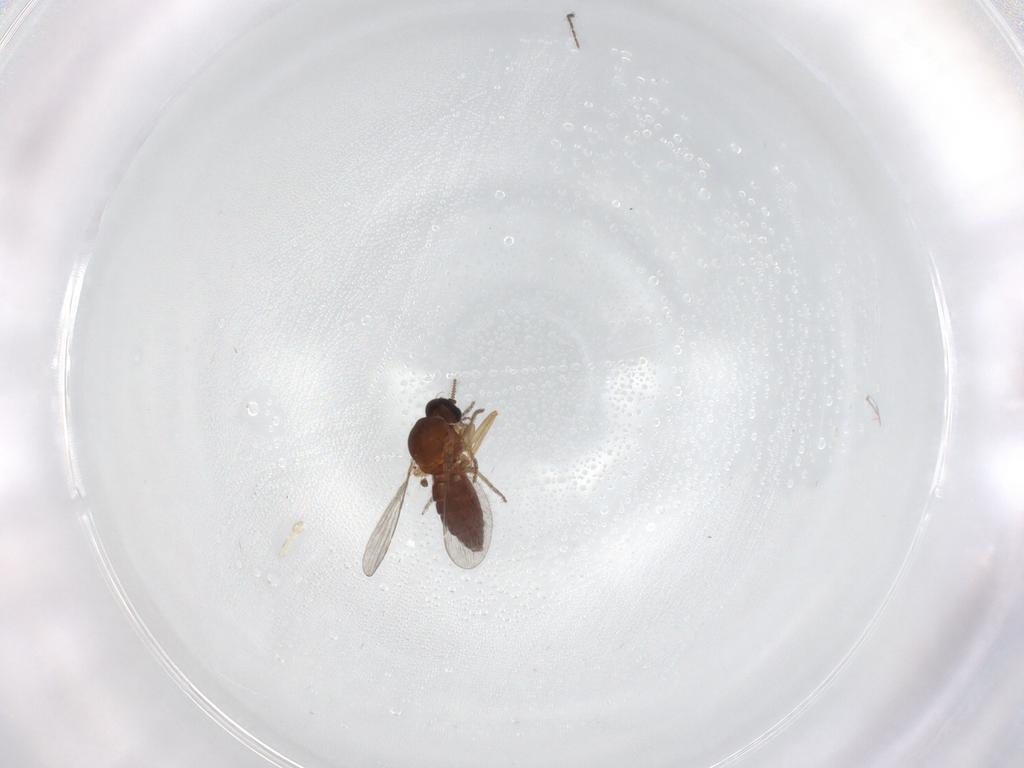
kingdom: Animalia
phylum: Arthropoda
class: Insecta
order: Diptera
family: Ceratopogonidae
